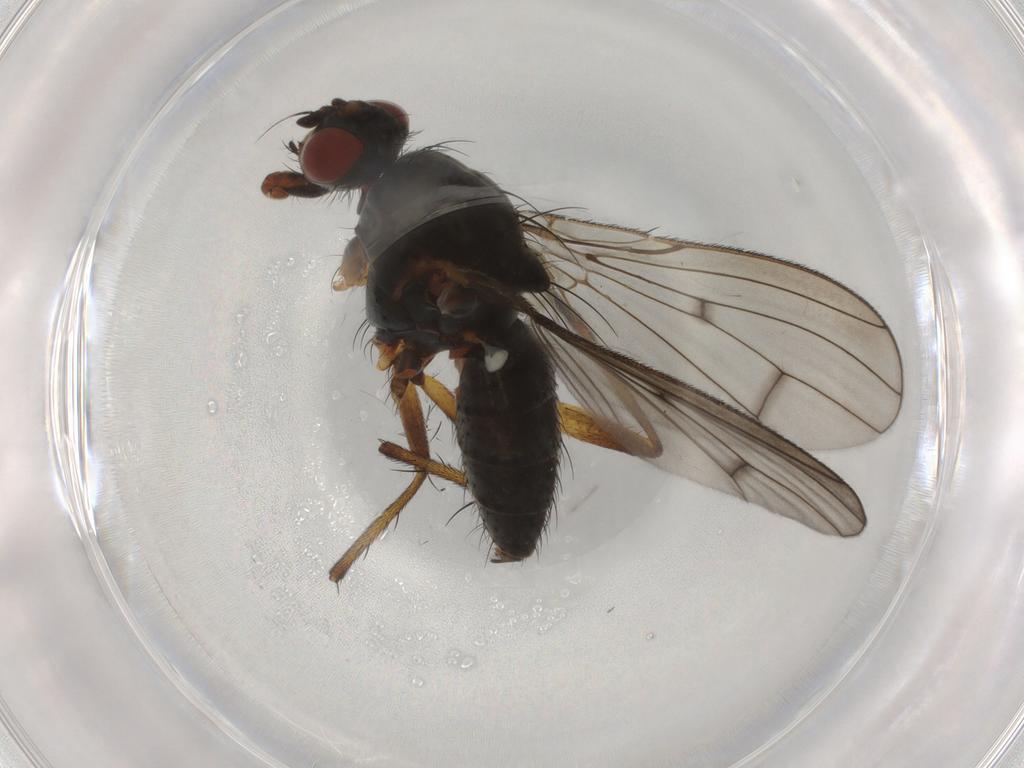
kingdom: Animalia
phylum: Arthropoda
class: Insecta
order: Diptera
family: Anthomyiidae
